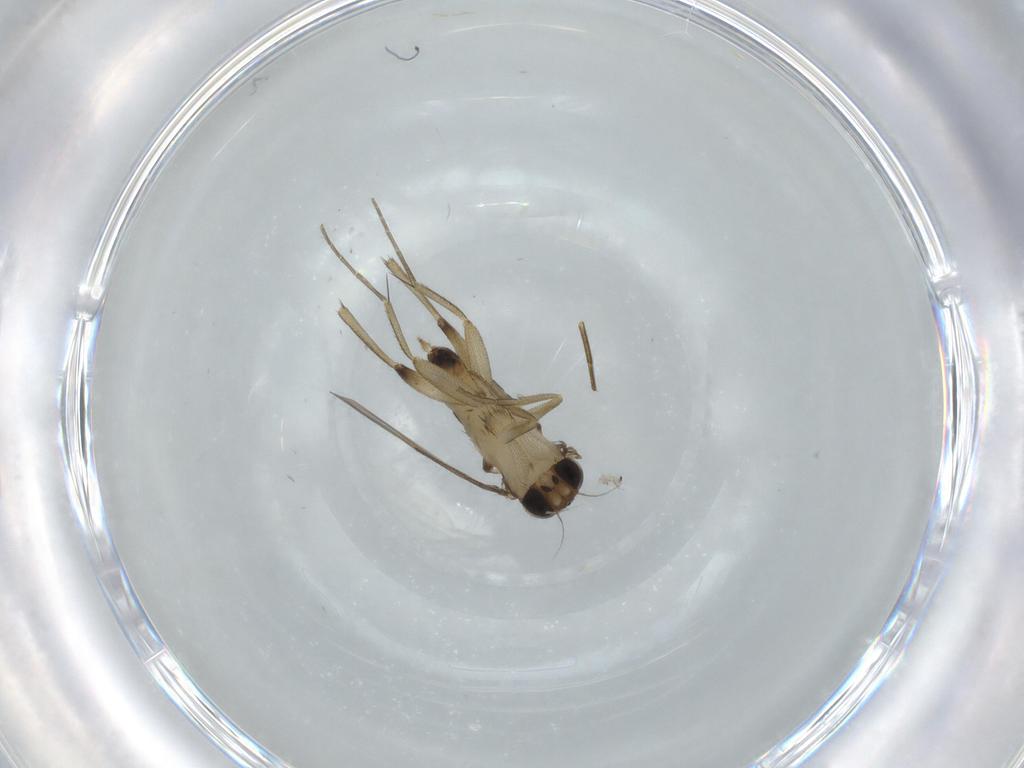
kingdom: Animalia
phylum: Arthropoda
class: Insecta
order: Diptera
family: Phoridae
